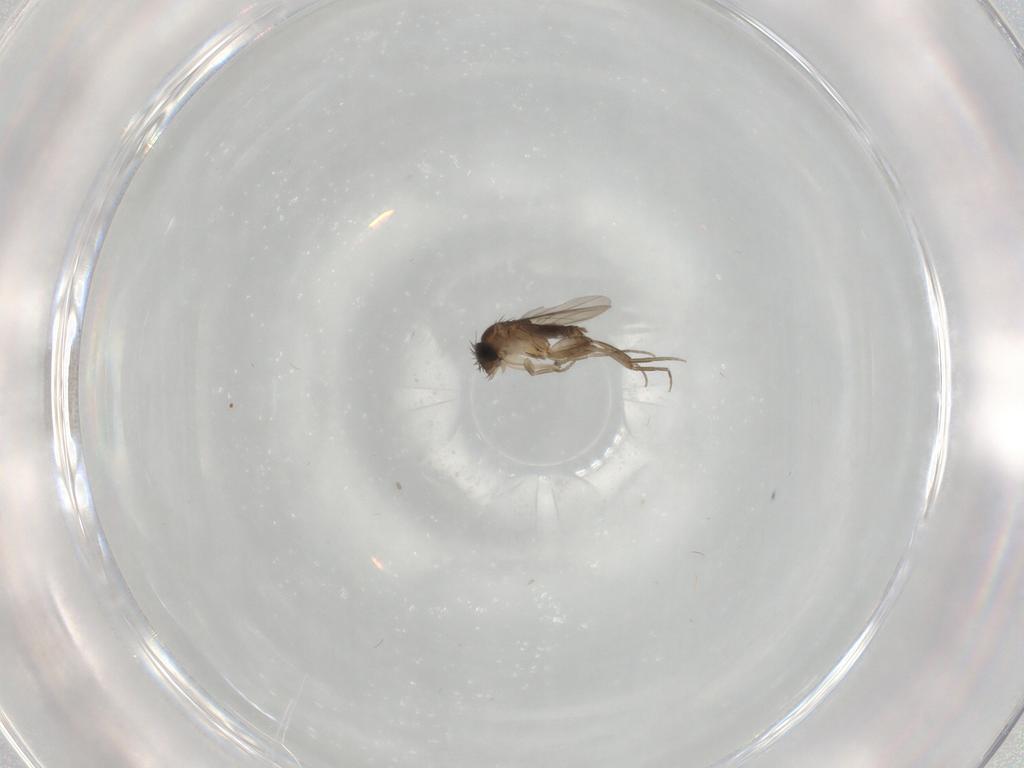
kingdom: Animalia
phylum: Arthropoda
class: Insecta
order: Diptera
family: Phoridae
